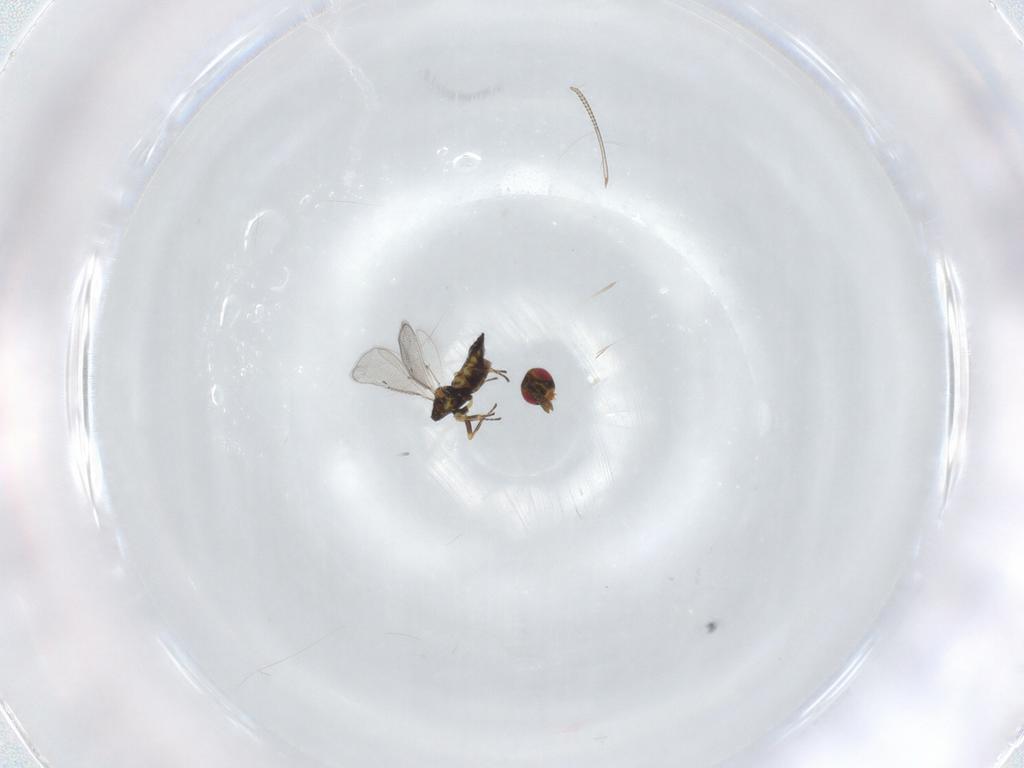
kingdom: Animalia
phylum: Arthropoda
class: Insecta
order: Hymenoptera
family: Eulophidae
